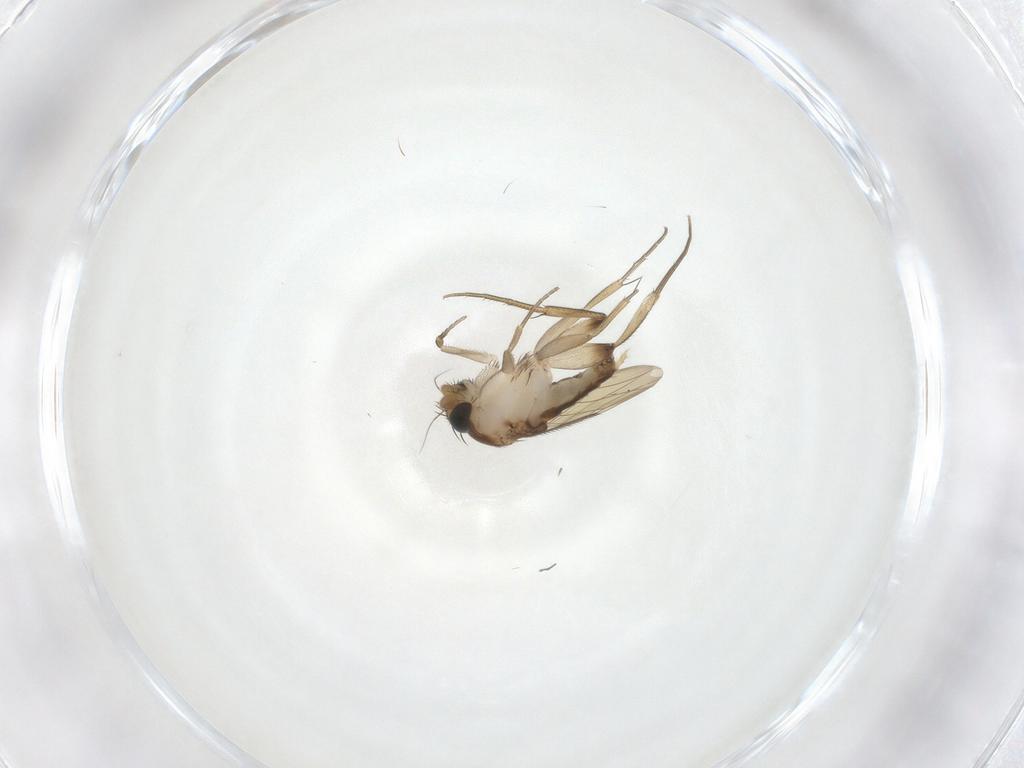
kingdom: Animalia
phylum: Arthropoda
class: Insecta
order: Diptera
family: Phoridae
